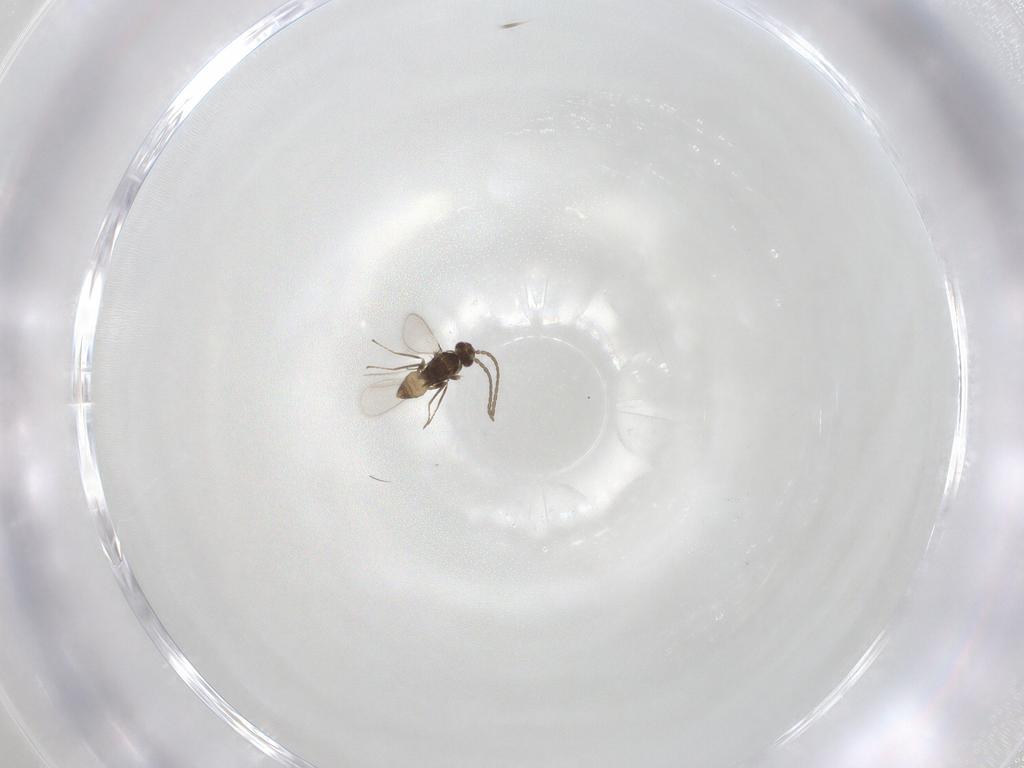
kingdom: Animalia
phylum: Arthropoda
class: Insecta
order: Hymenoptera
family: Mymaridae
